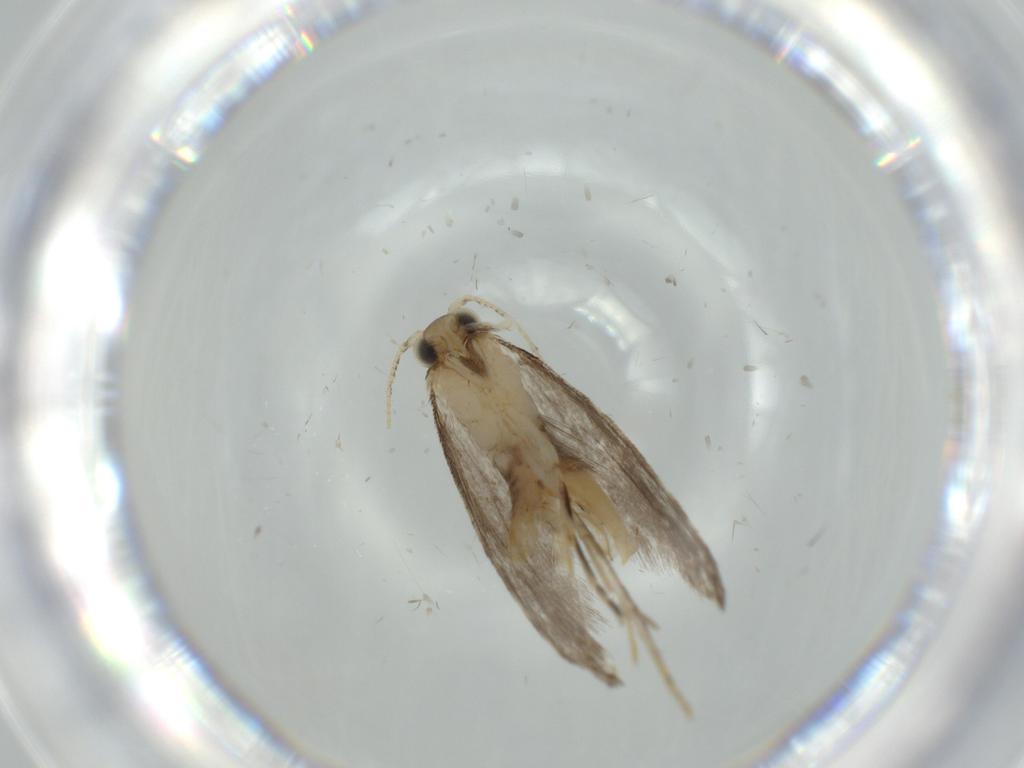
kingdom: Animalia
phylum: Arthropoda
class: Insecta
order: Lepidoptera
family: Tineidae
